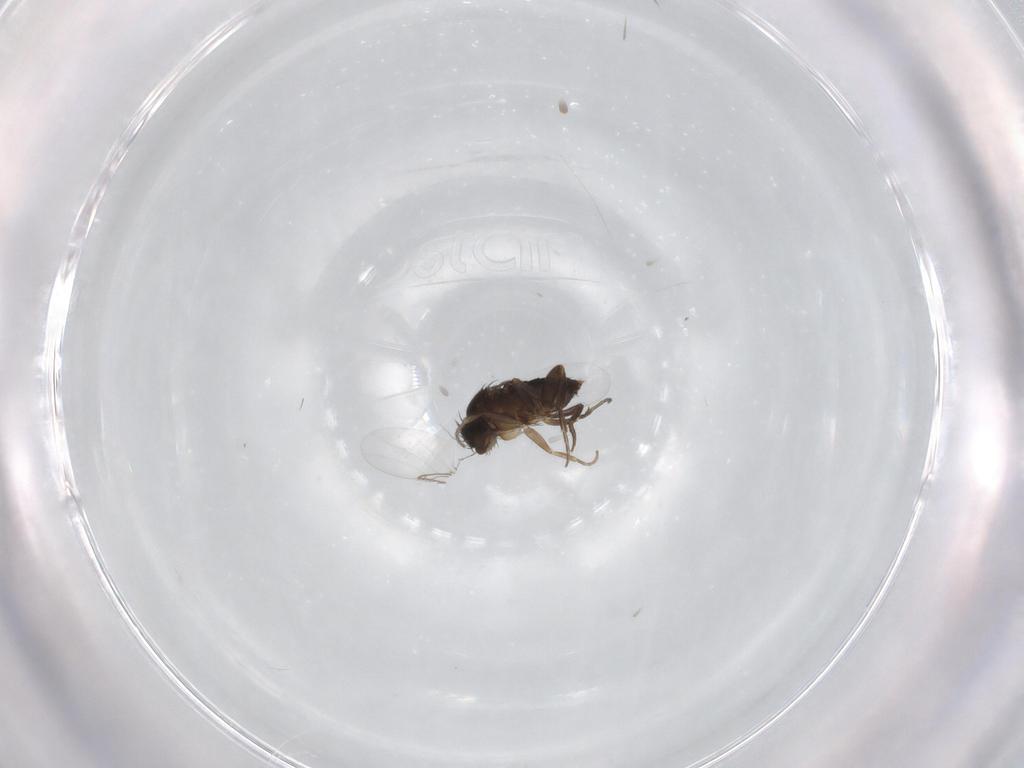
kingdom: Animalia
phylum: Arthropoda
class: Insecta
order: Diptera
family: Phoridae
